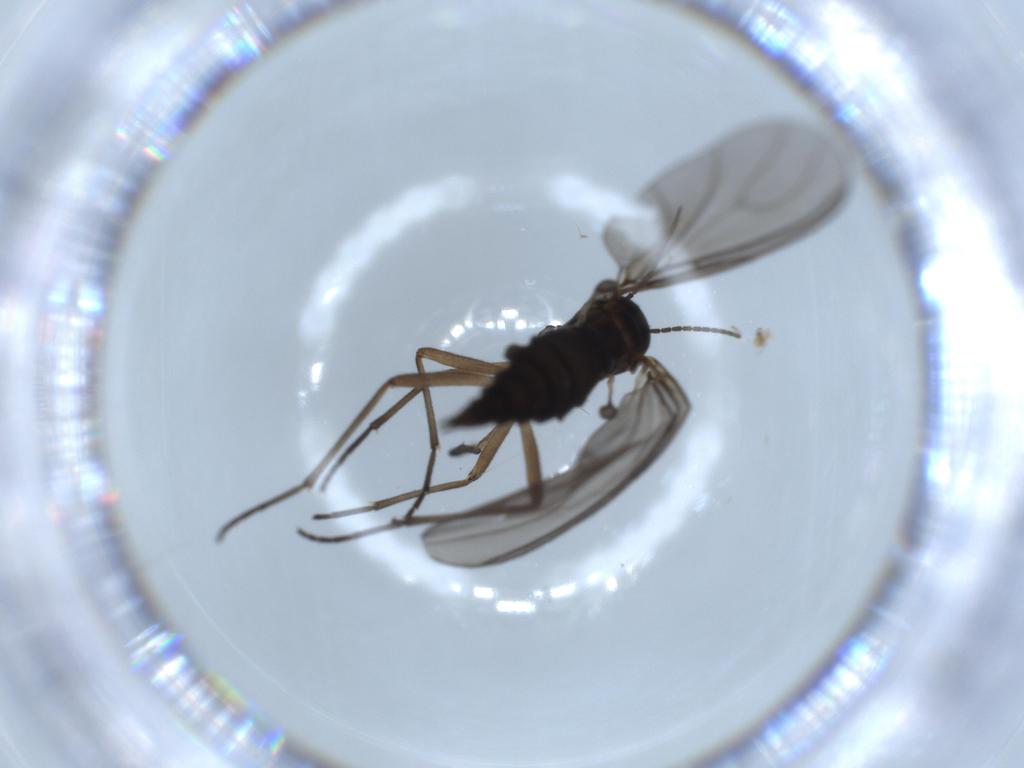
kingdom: Animalia
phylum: Arthropoda
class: Insecta
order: Diptera
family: Sciaridae
